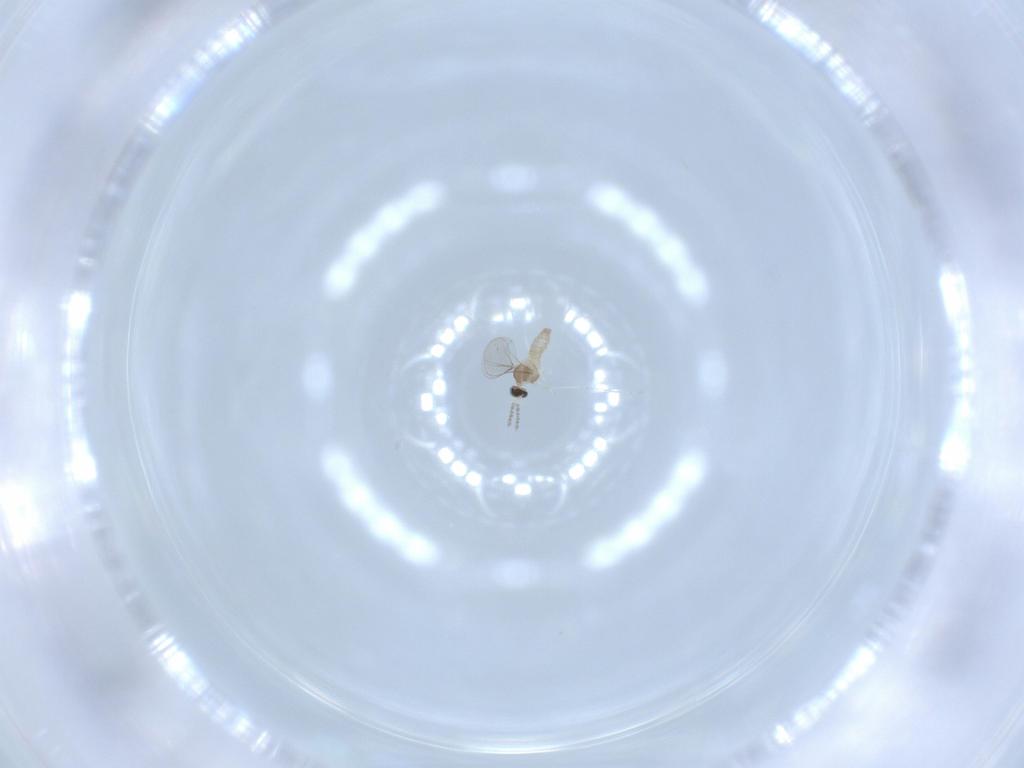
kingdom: Animalia
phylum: Arthropoda
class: Insecta
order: Diptera
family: Cecidomyiidae
